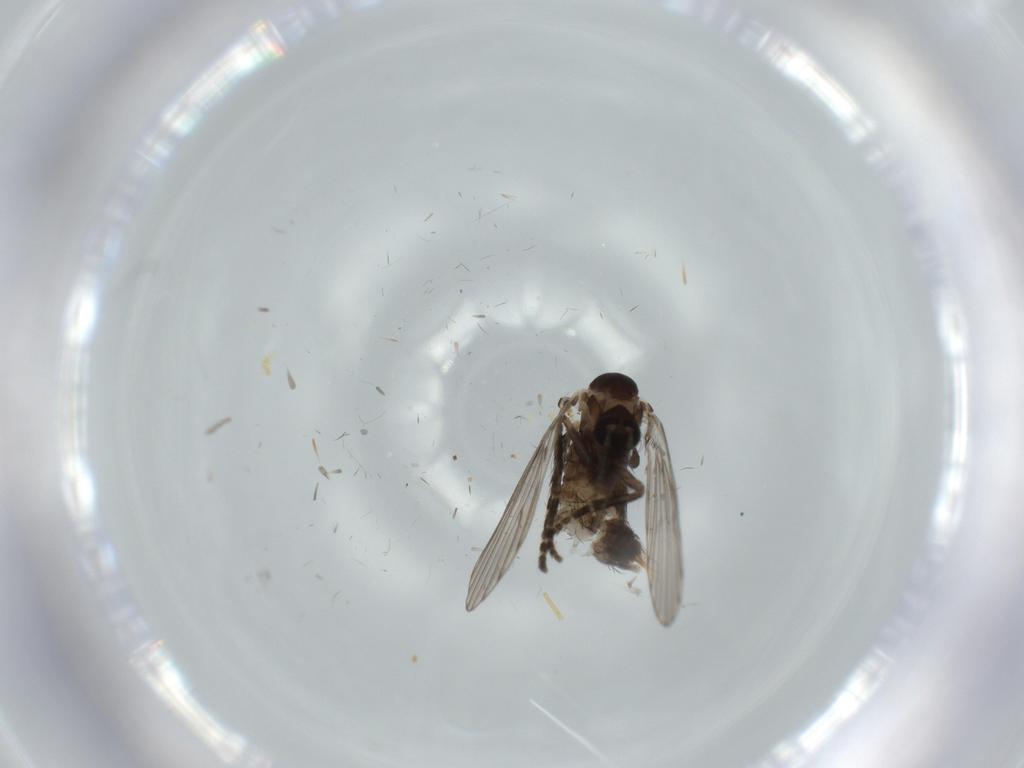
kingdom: Animalia
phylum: Arthropoda
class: Insecta
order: Diptera
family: Psychodidae
